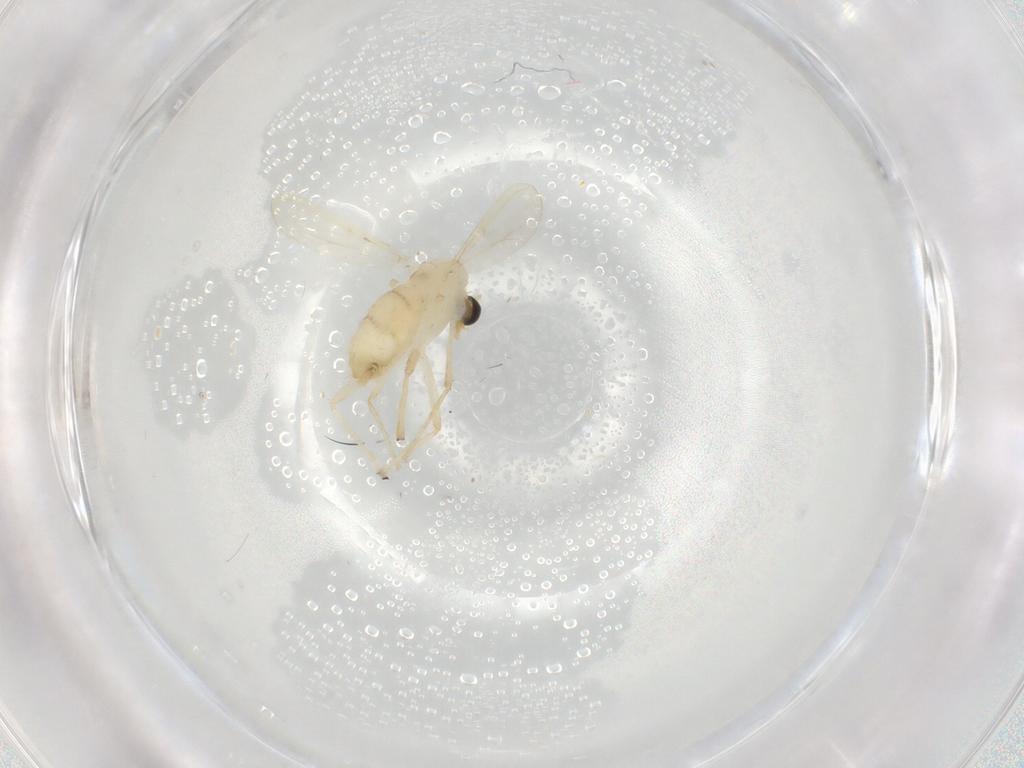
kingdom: Animalia
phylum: Arthropoda
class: Insecta
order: Diptera
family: Chironomidae
